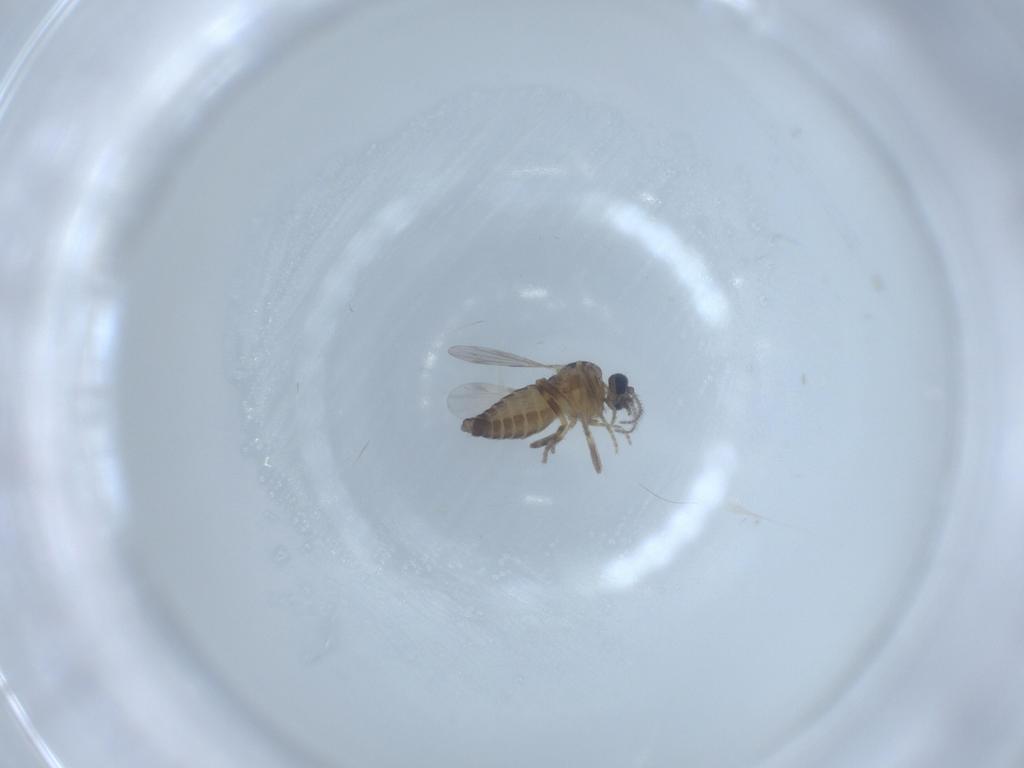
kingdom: Animalia
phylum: Arthropoda
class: Insecta
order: Diptera
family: Ceratopogonidae
